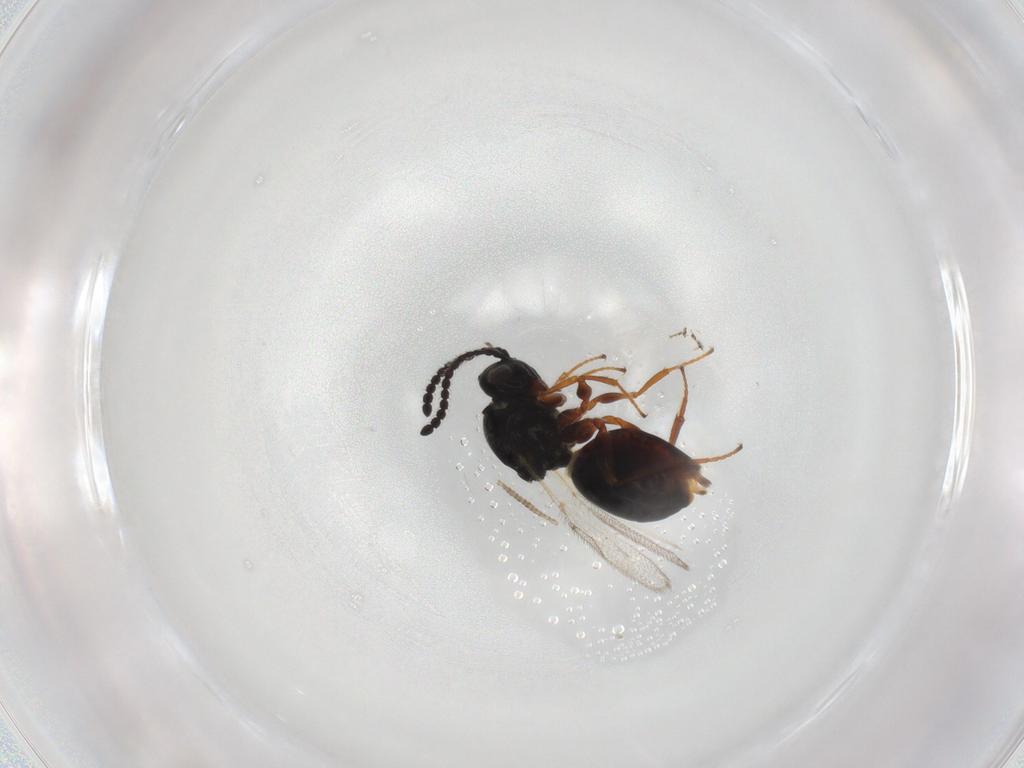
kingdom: Animalia
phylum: Arthropoda
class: Insecta
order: Hymenoptera
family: Figitidae
